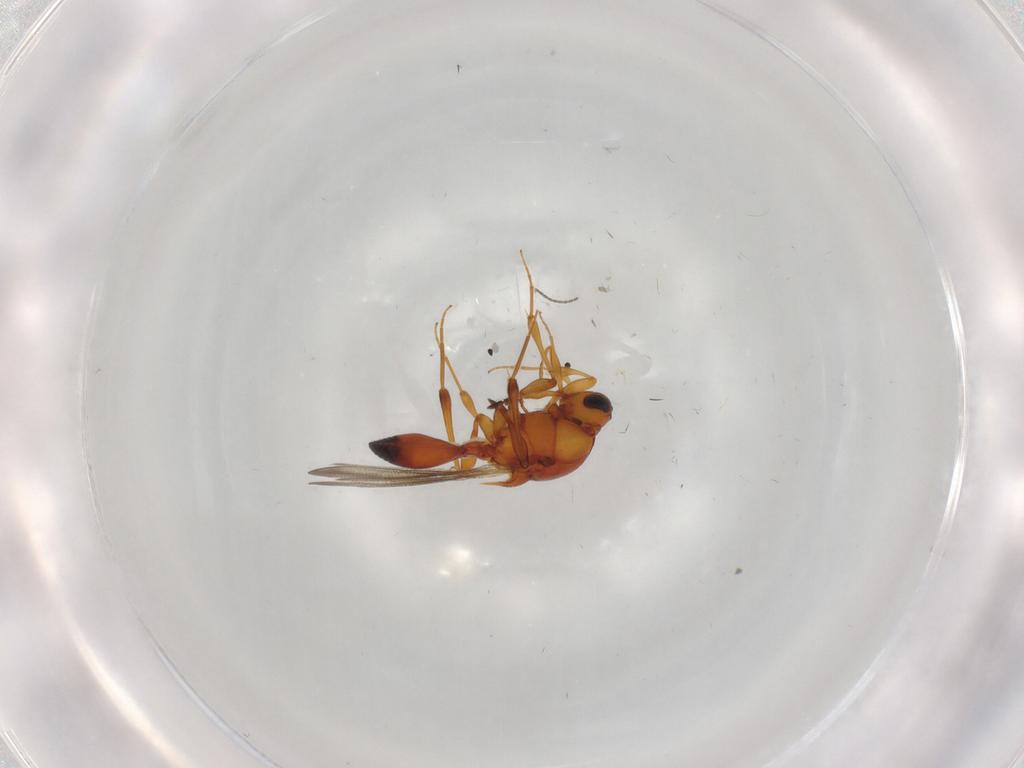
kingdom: Animalia
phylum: Arthropoda
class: Insecta
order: Hymenoptera
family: Platygastridae
